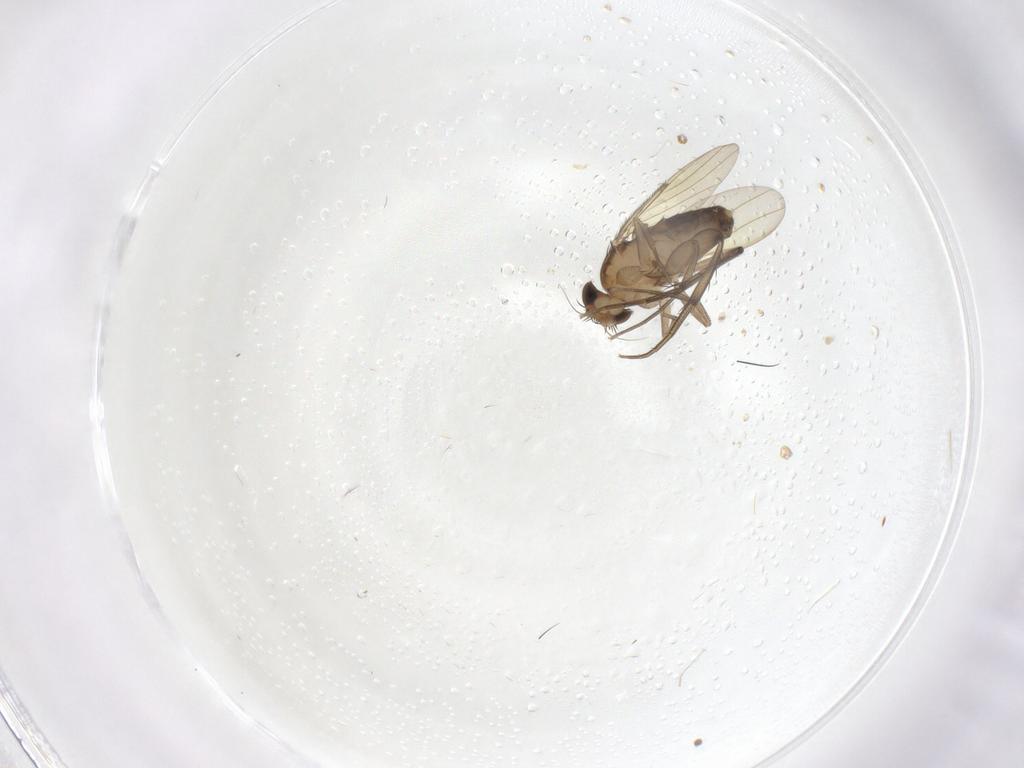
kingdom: Animalia
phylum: Arthropoda
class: Insecta
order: Diptera
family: Phoridae
